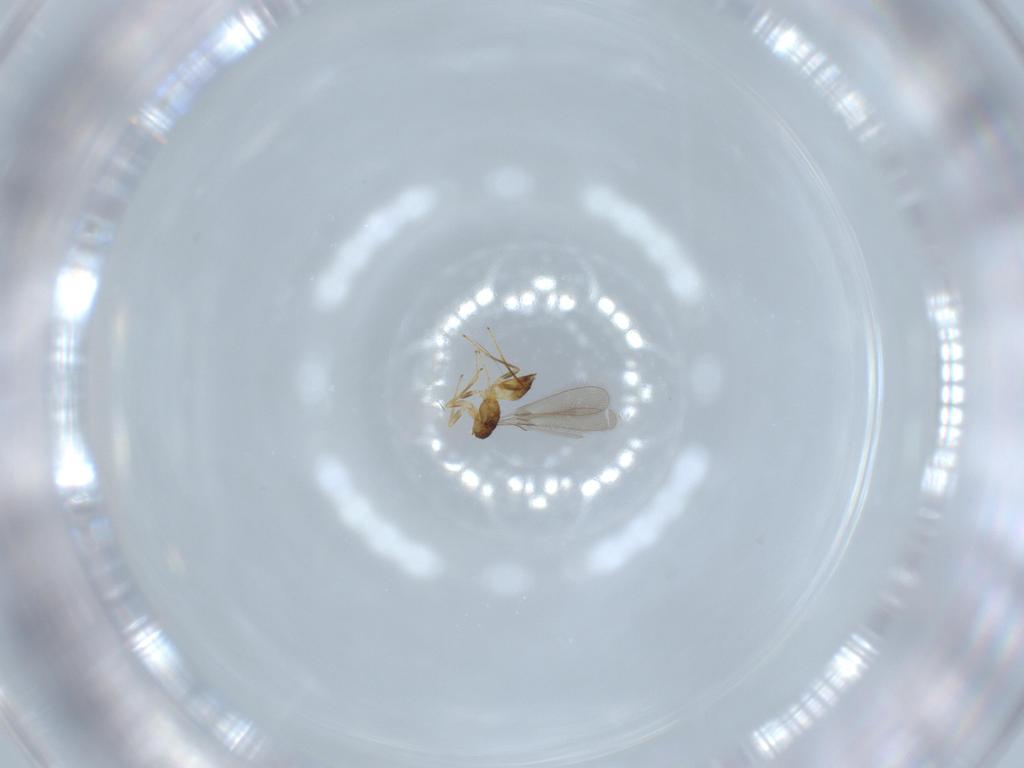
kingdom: Animalia
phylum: Arthropoda
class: Insecta
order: Hymenoptera
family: Mymaridae
